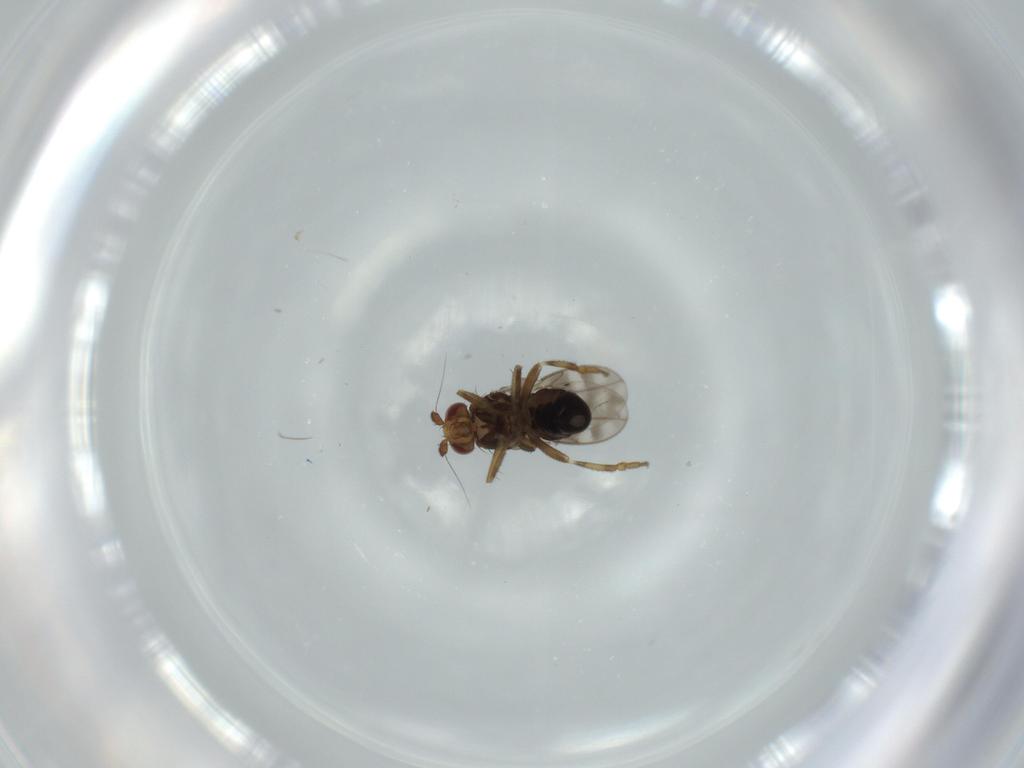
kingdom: Animalia
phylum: Arthropoda
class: Insecta
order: Diptera
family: Sphaeroceridae
